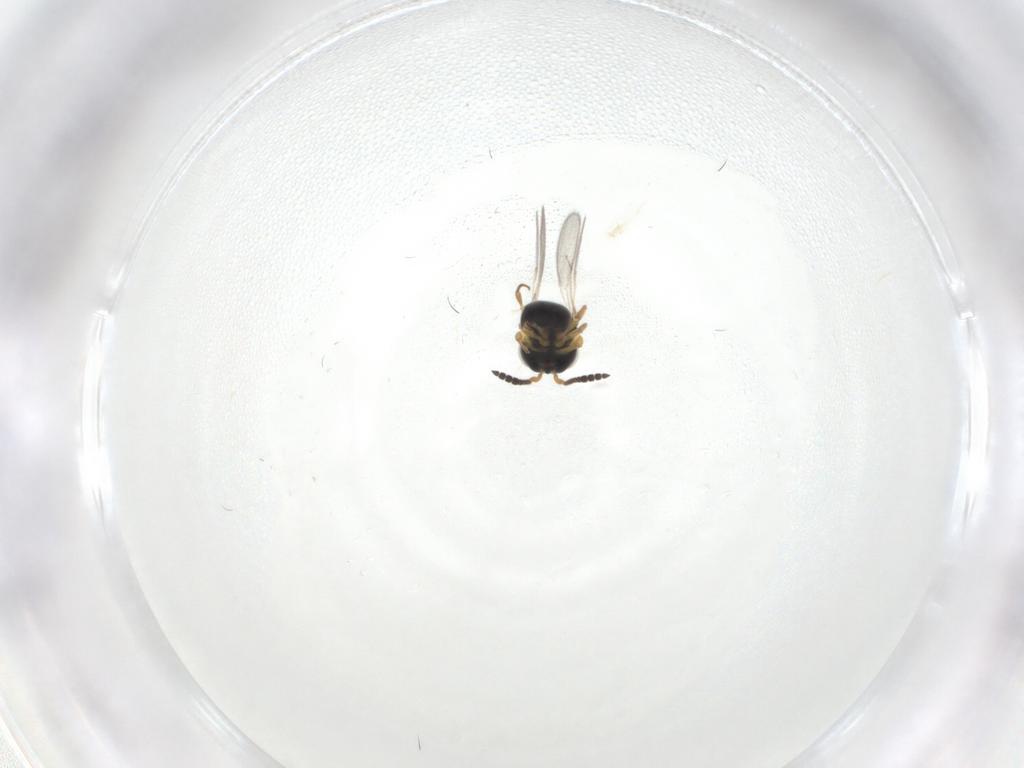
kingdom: Animalia
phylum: Arthropoda
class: Insecta
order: Hymenoptera
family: Scelionidae
